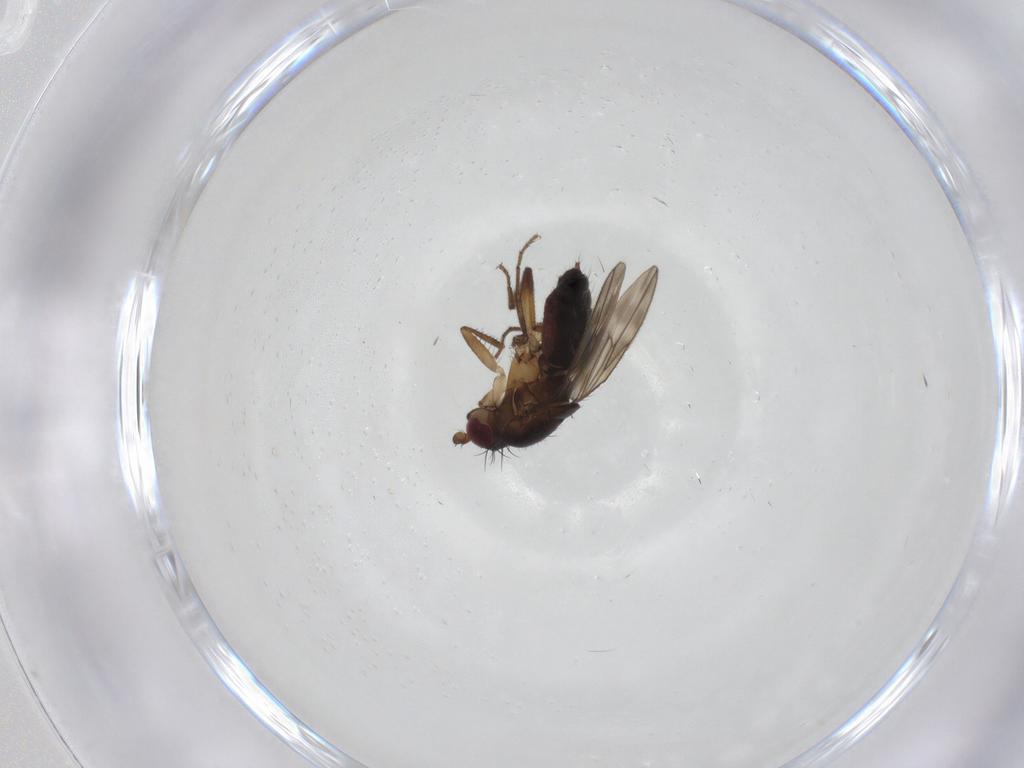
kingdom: Animalia
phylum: Arthropoda
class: Insecta
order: Diptera
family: Sphaeroceridae
